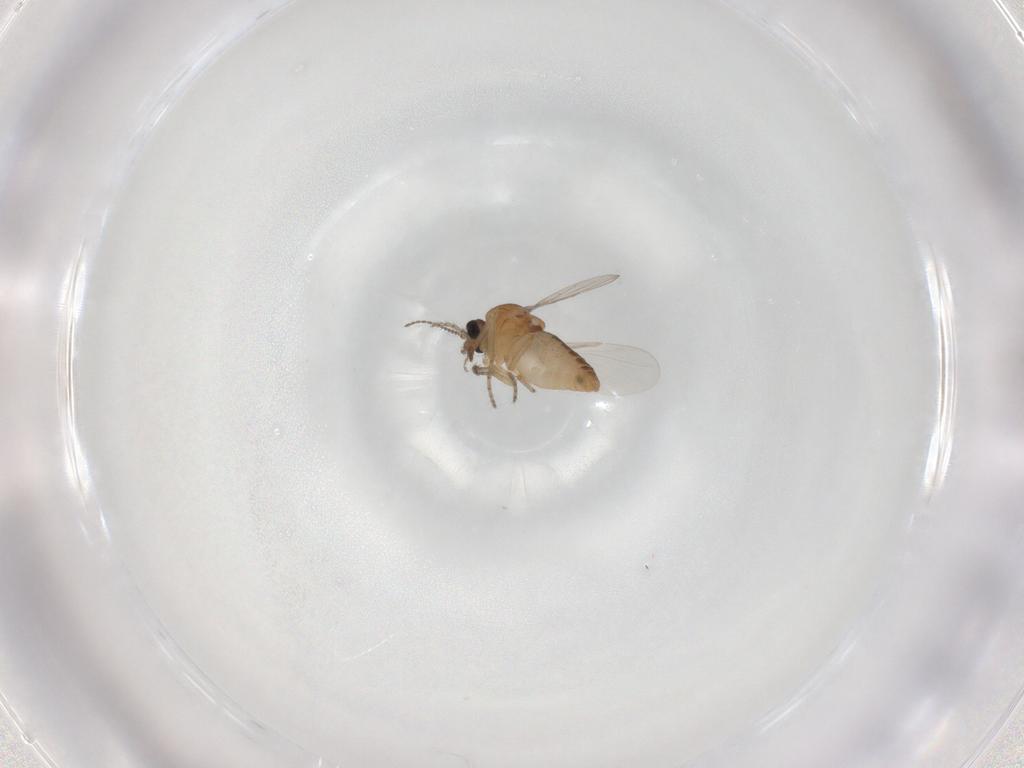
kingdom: Animalia
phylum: Arthropoda
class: Insecta
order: Diptera
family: Ceratopogonidae
